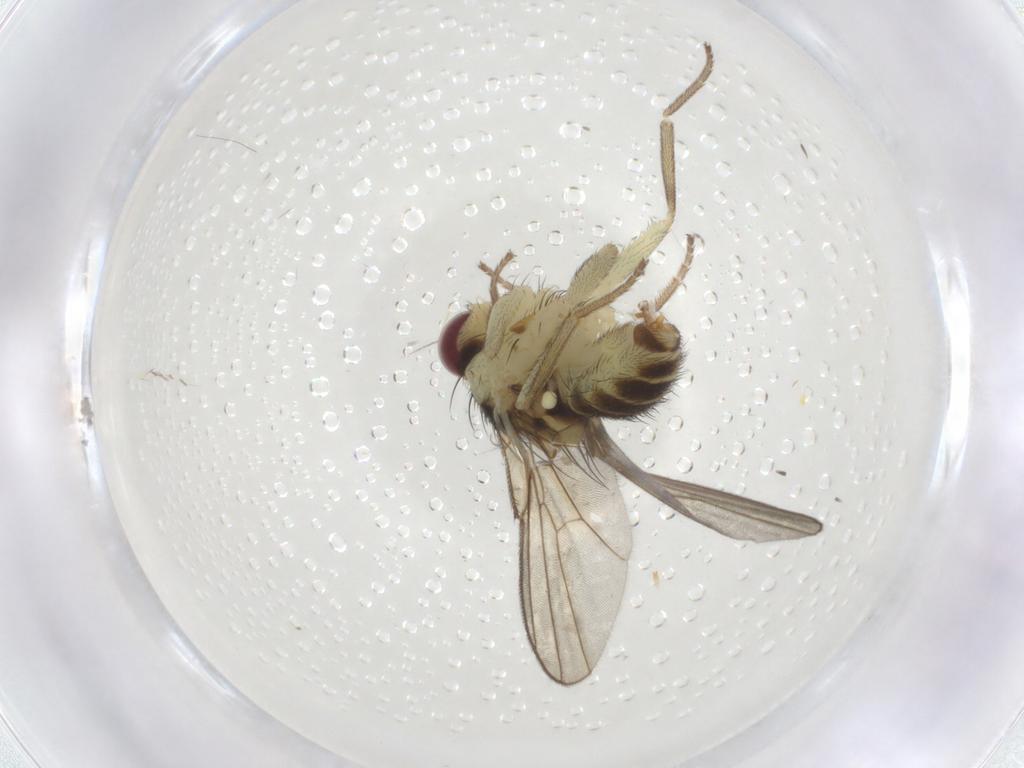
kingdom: Animalia
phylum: Arthropoda
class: Insecta
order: Diptera
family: Agromyzidae
